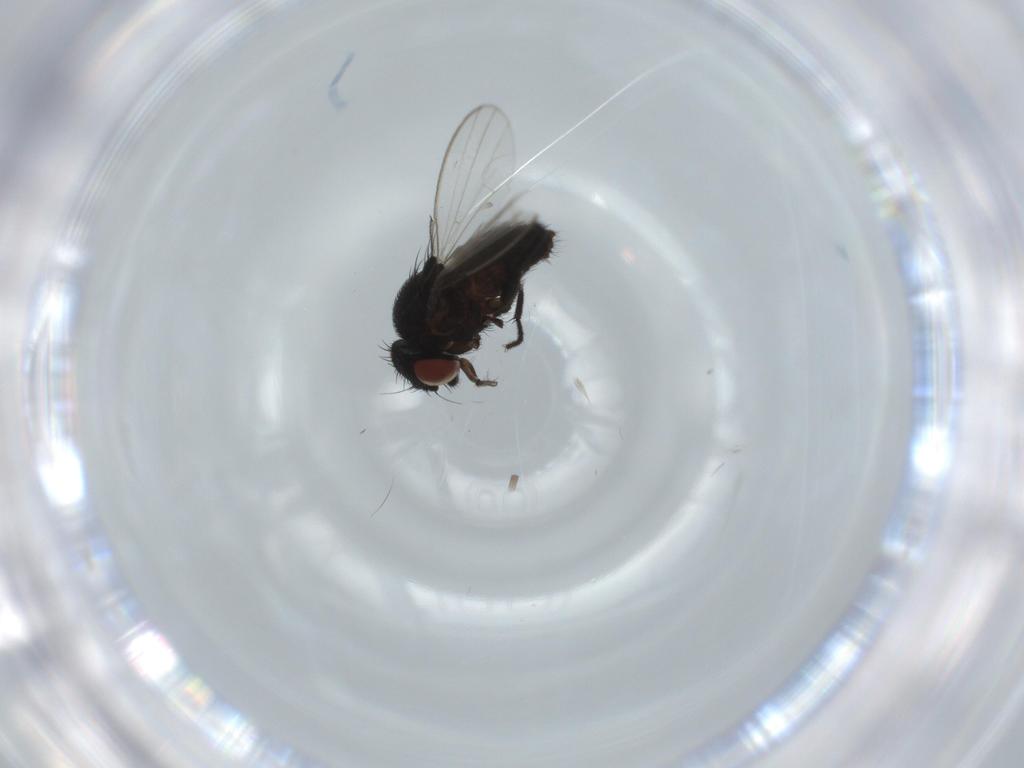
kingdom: Animalia
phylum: Arthropoda
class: Insecta
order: Diptera
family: Milichiidae
